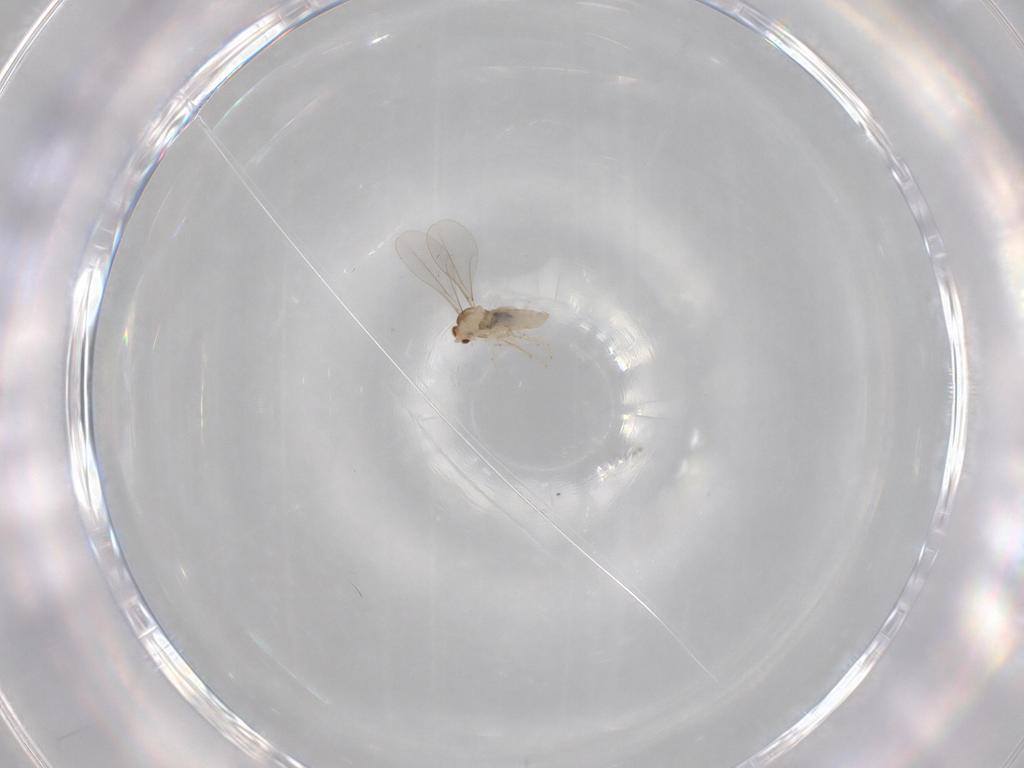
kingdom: Animalia
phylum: Arthropoda
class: Insecta
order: Diptera
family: Cecidomyiidae
